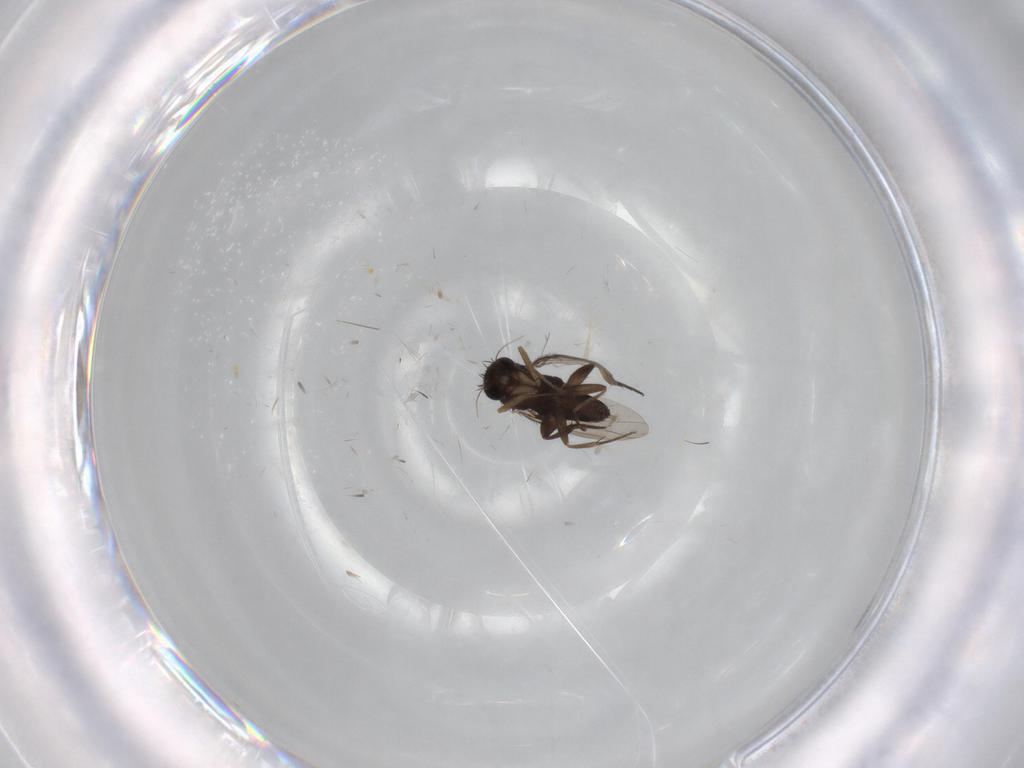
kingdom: Animalia
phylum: Arthropoda
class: Insecta
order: Diptera
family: Phoridae
